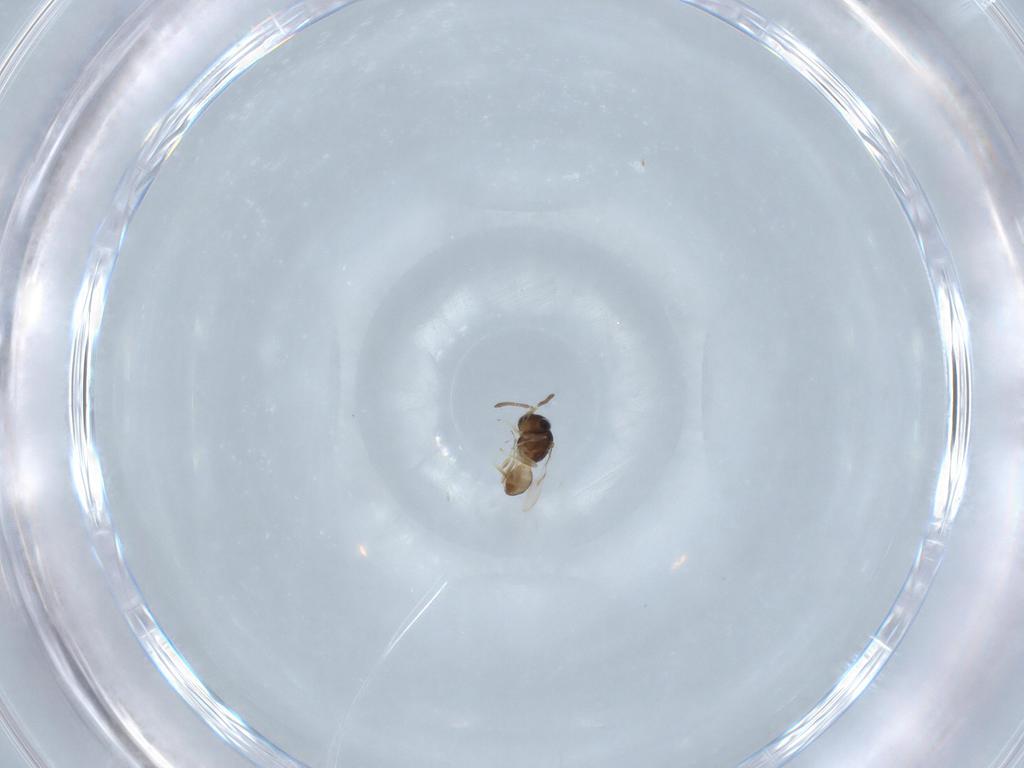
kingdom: Animalia
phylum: Arthropoda
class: Insecta
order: Hymenoptera
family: Scelionidae
